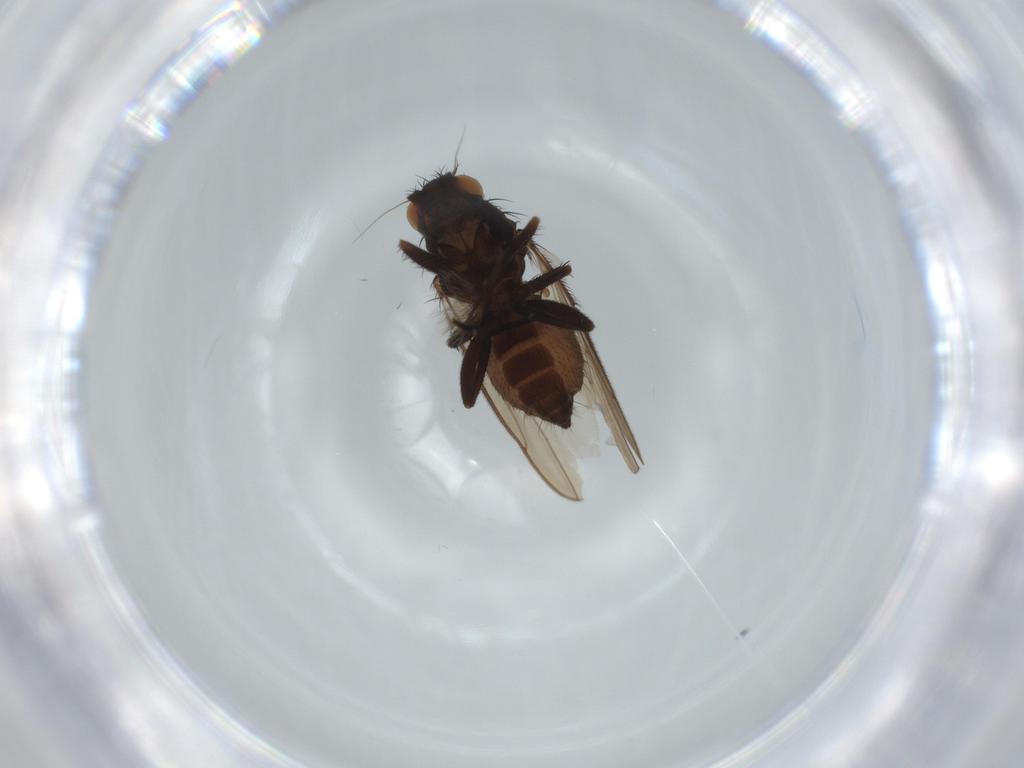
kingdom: Animalia
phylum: Arthropoda
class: Insecta
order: Diptera
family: Sphaeroceridae
